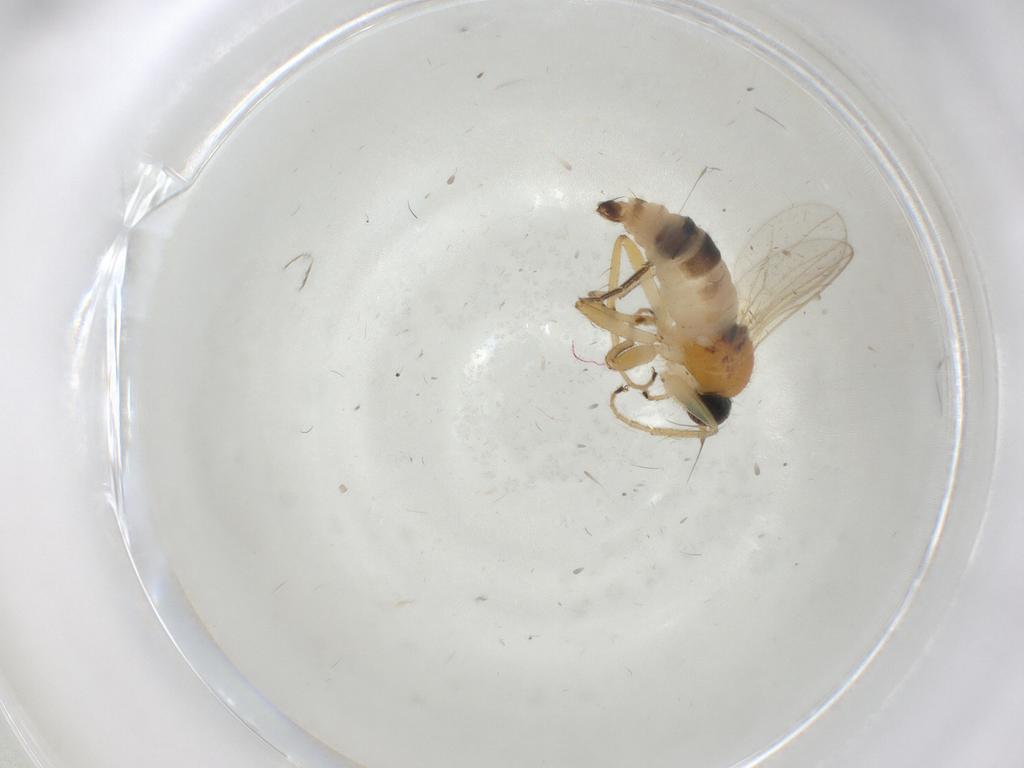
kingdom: Animalia
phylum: Arthropoda
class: Insecta
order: Diptera
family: Hybotidae
